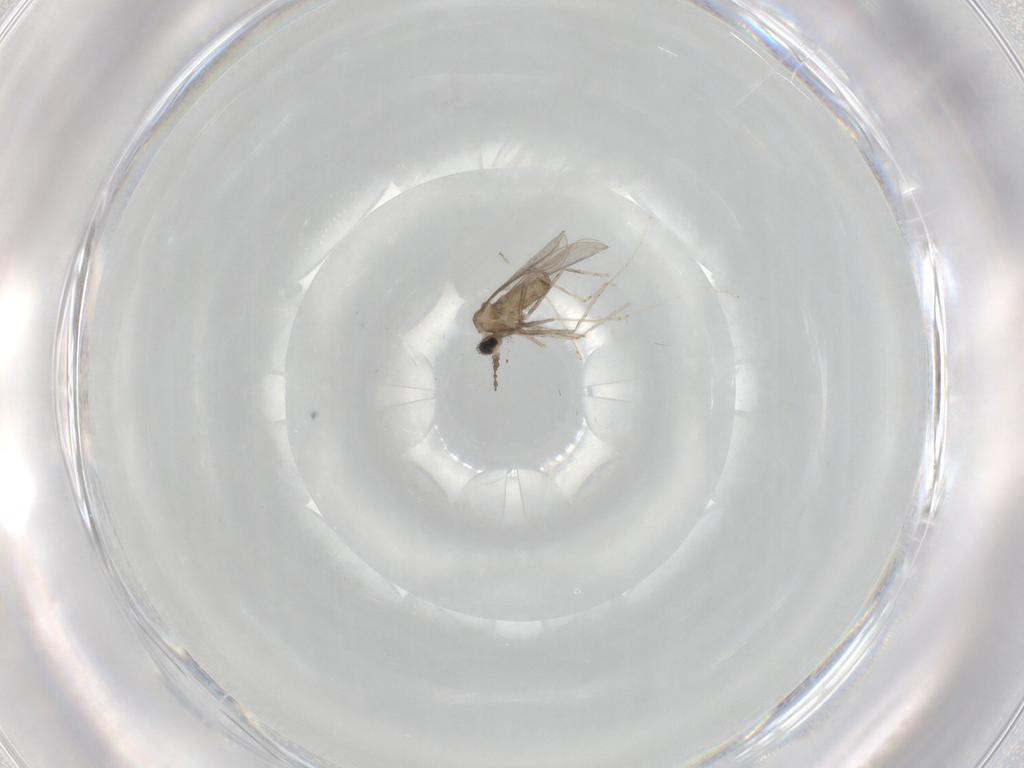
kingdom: Animalia
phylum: Arthropoda
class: Insecta
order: Diptera
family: Cecidomyiidae
